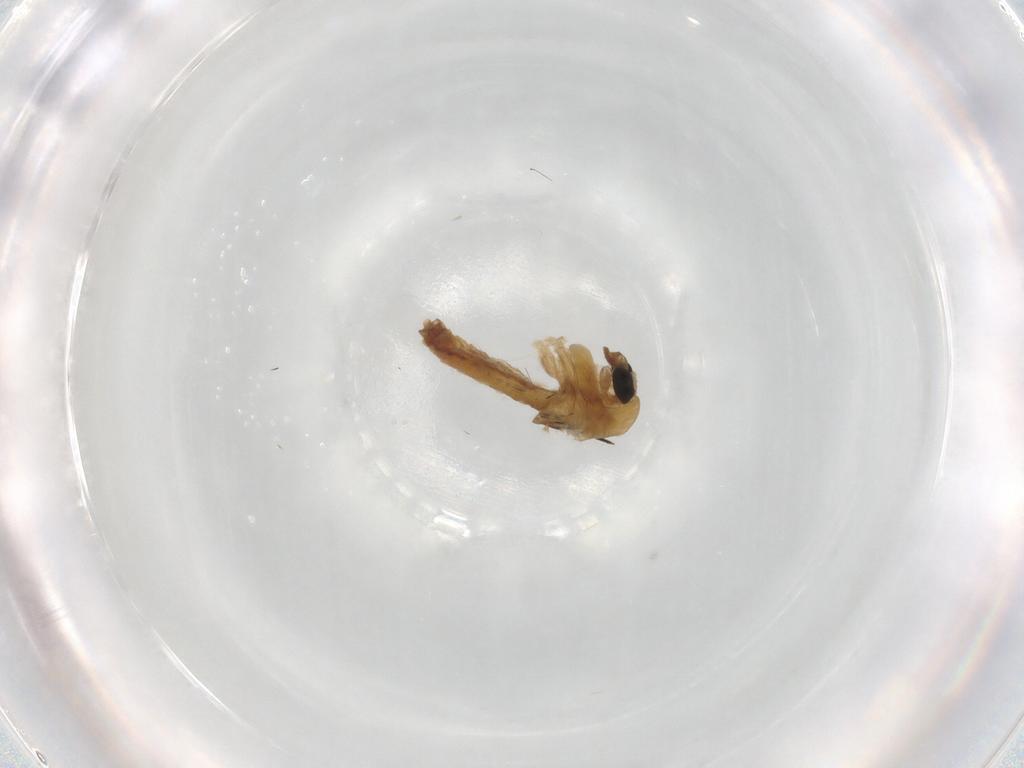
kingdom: Animalia
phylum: Arthropoda
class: Insecta
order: Diptera
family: Chironomidae
